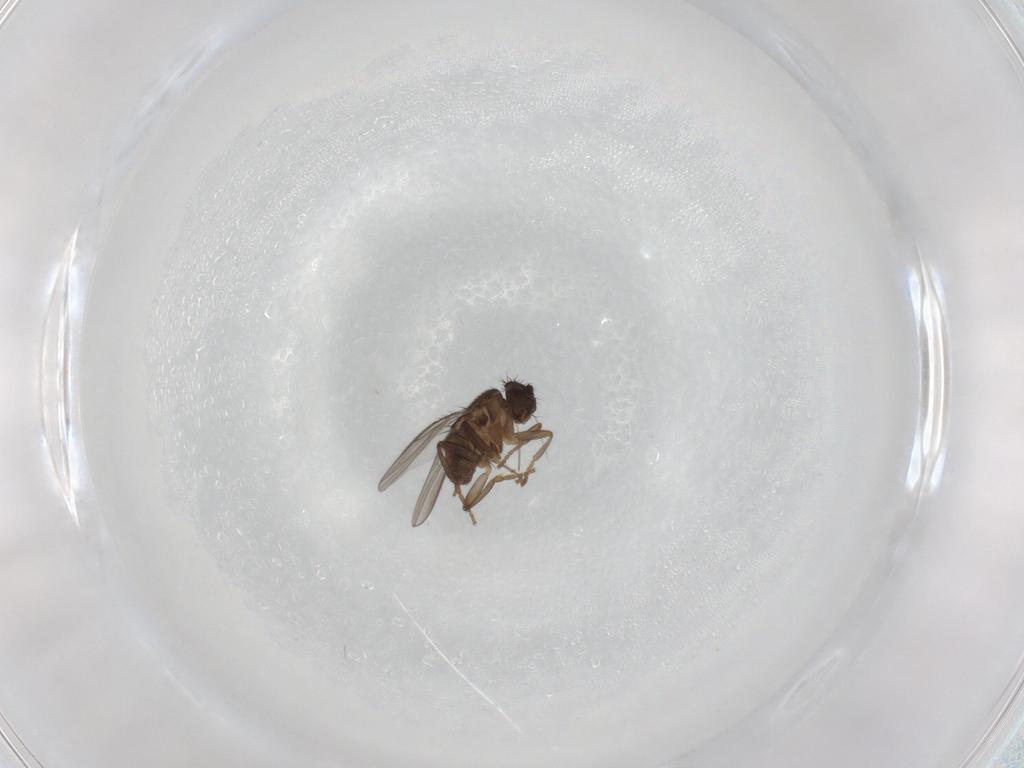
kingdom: Animalia
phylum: Arthropoda
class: Insecta
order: Diptera
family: Sphaeroceridae
